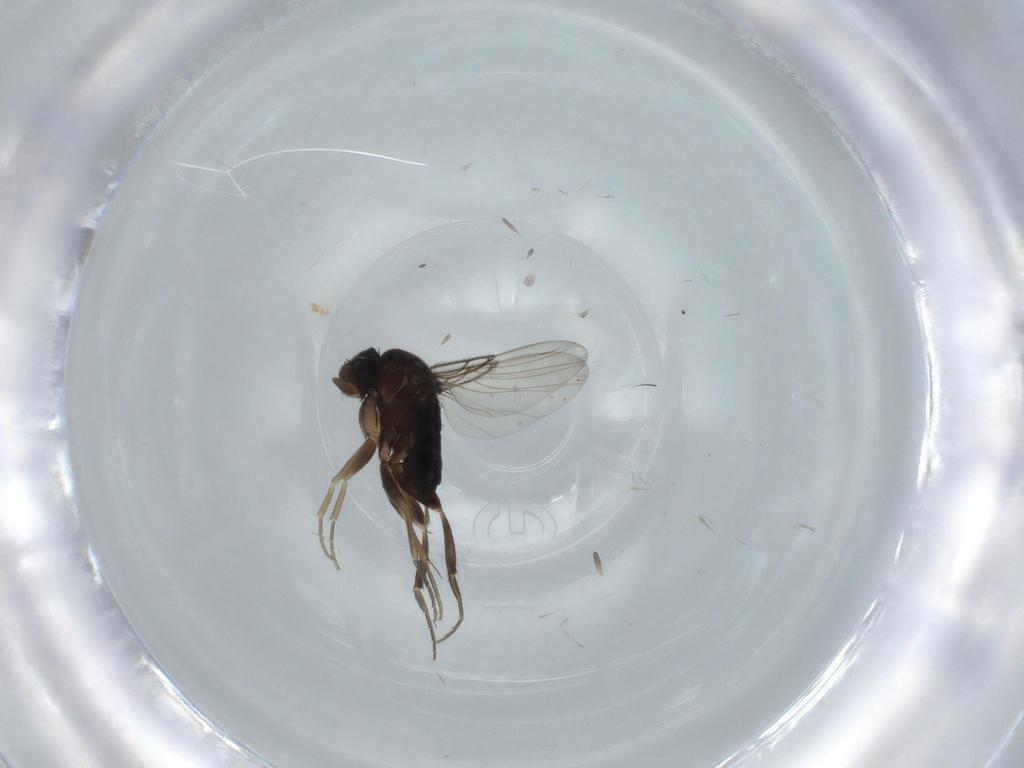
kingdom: Animalia
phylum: Arthropoda
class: Insecta
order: Diptera
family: Phoridae
